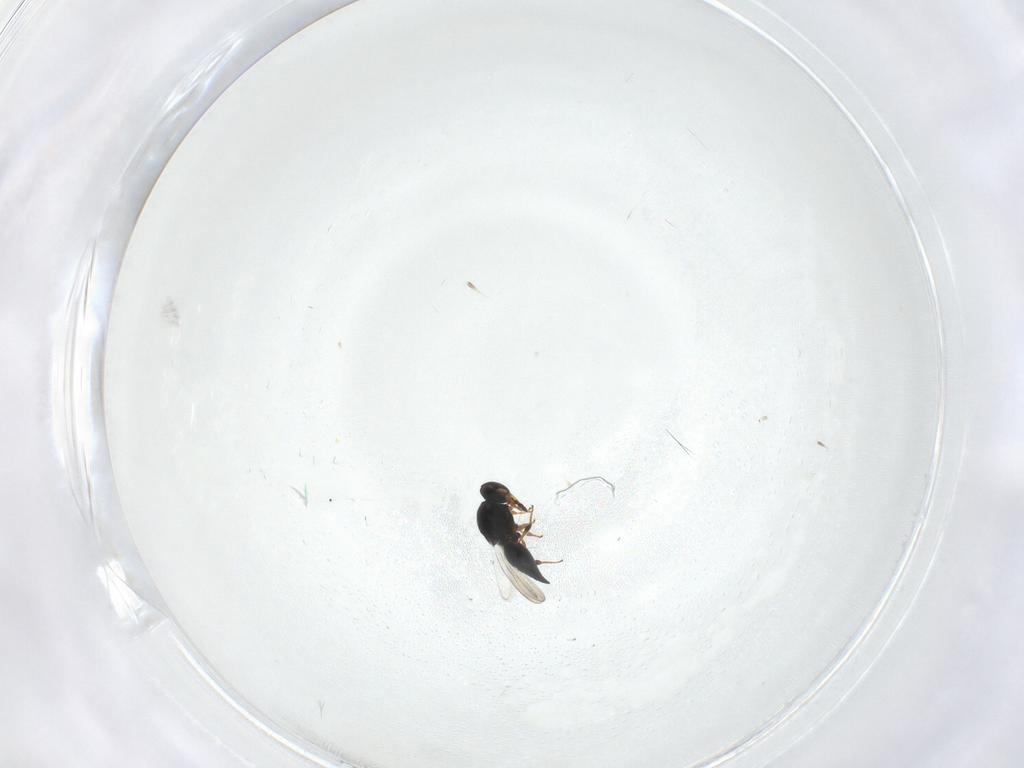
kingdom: Animalia
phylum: Arthropoda
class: Insecta
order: Hymenoptera
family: Platygastridae
